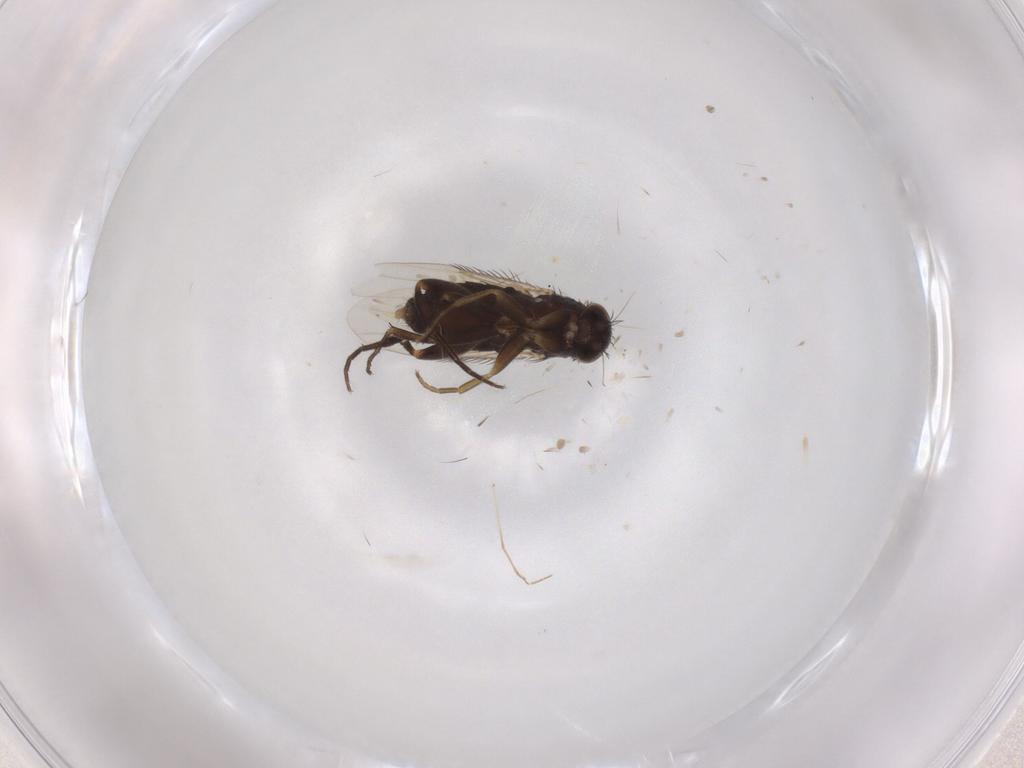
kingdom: Animalia
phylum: Arthropoda
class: Insecta
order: Diptera
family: Phoridae
